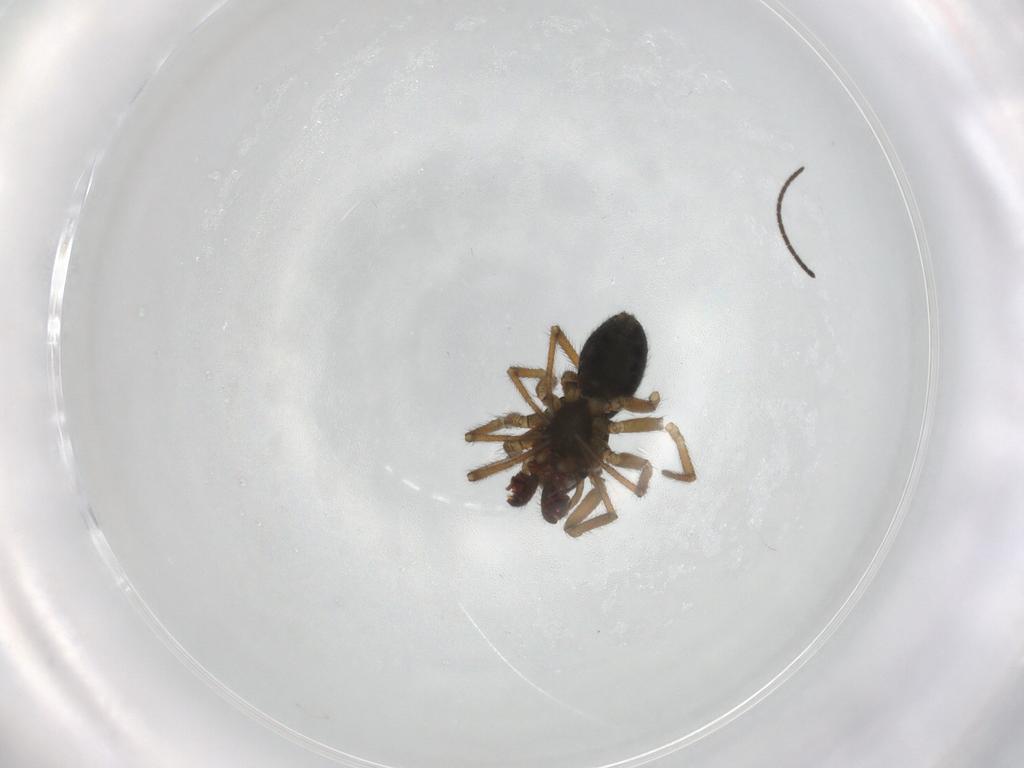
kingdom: Animalia
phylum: Arthropoda
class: Arachnida
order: Araneae
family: Linyphiidae
